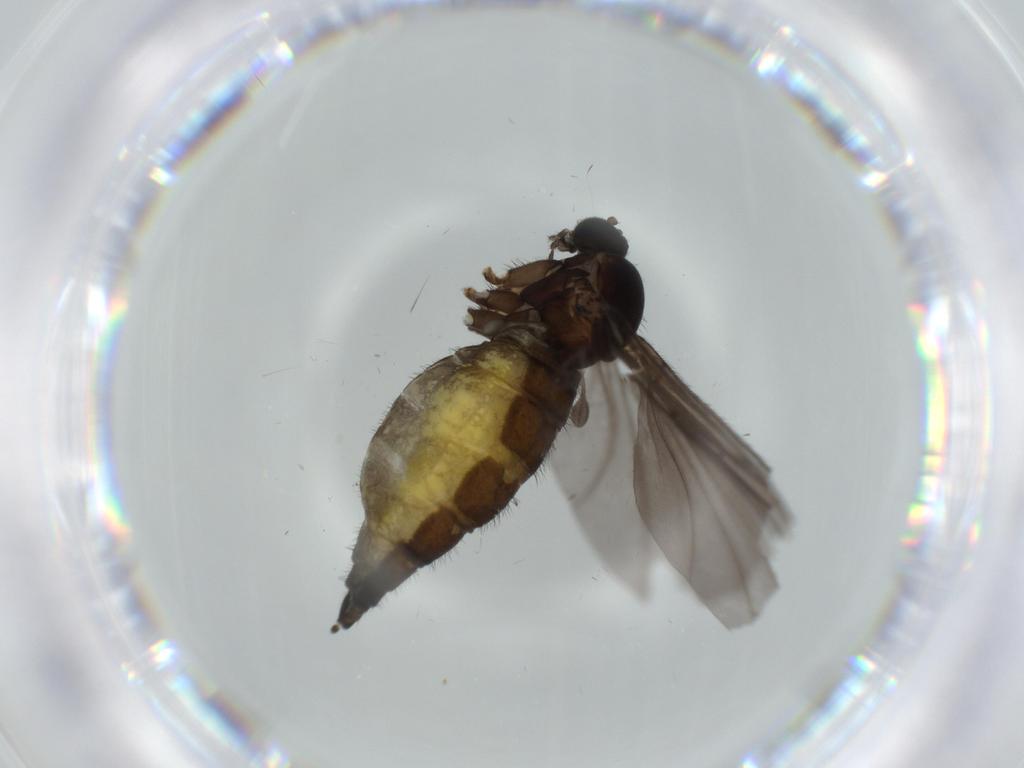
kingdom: Animalia
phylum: Arthropoda
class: Insecta
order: Diptera
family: Sciaridae
